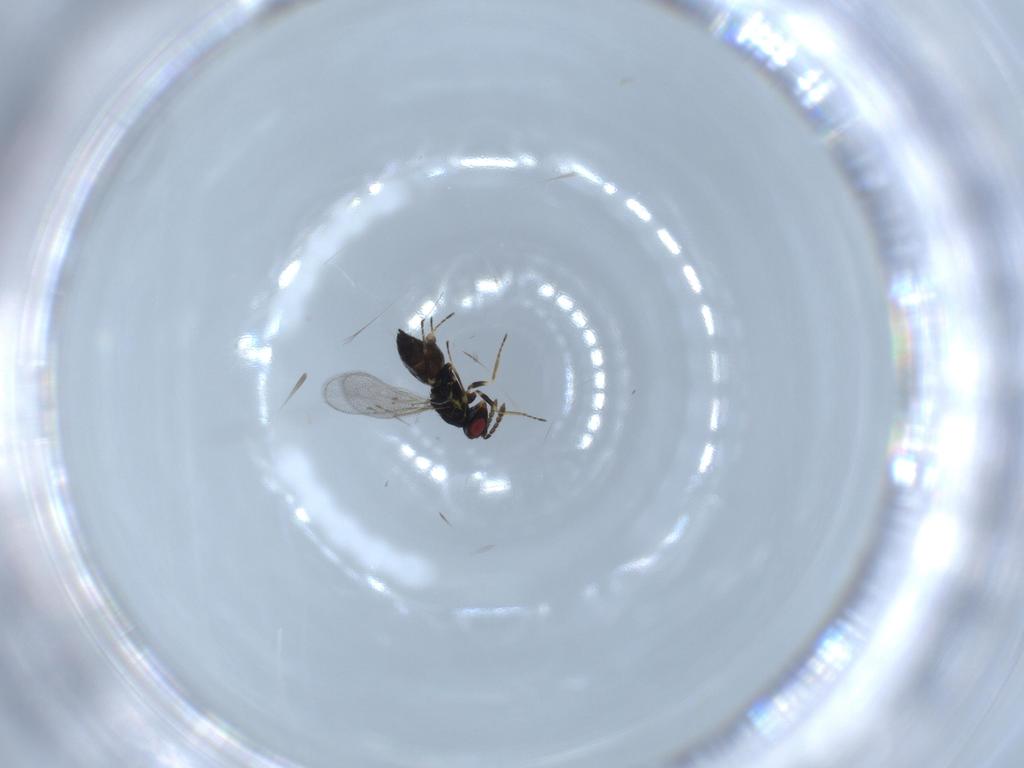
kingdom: Animalia
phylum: Arthropoda
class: Insecta
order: Hymenoptera
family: Eulophidae
